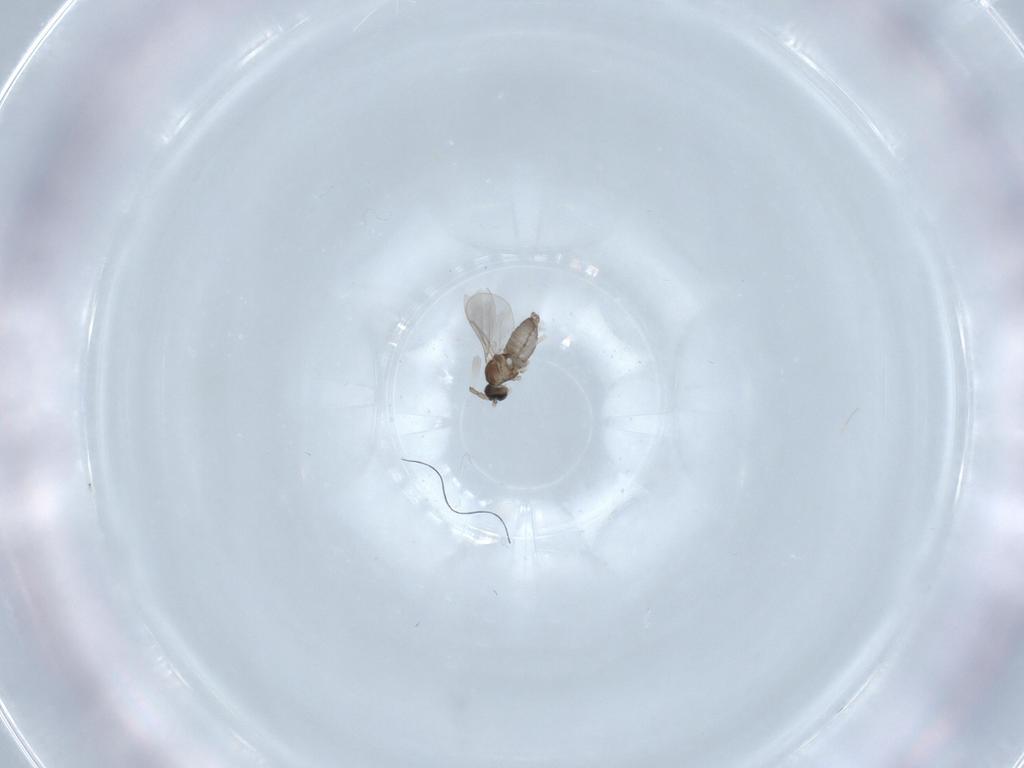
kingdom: Animalia
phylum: Arthropoda
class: Insecta
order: Diptera
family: Cecidomyiidae
